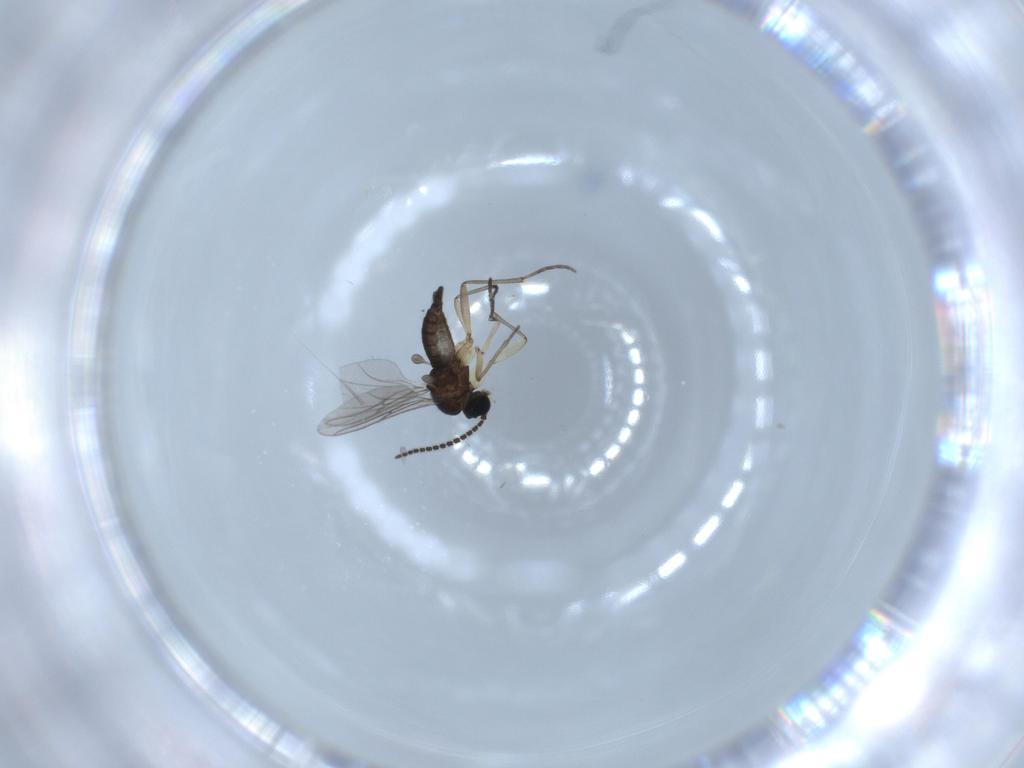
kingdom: Animalia
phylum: Arthropoda
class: Insecta
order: Diptera
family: Sciaridae
